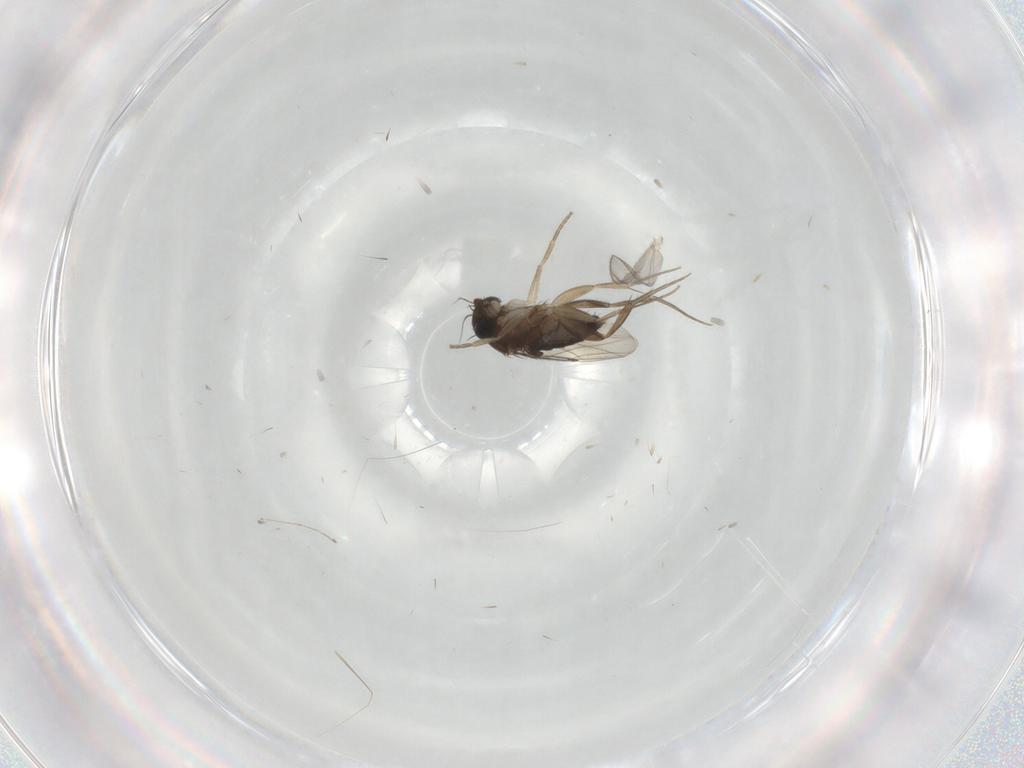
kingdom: Animalia
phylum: Arthropoda
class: Insecta
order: Diptera
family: Phoridae
